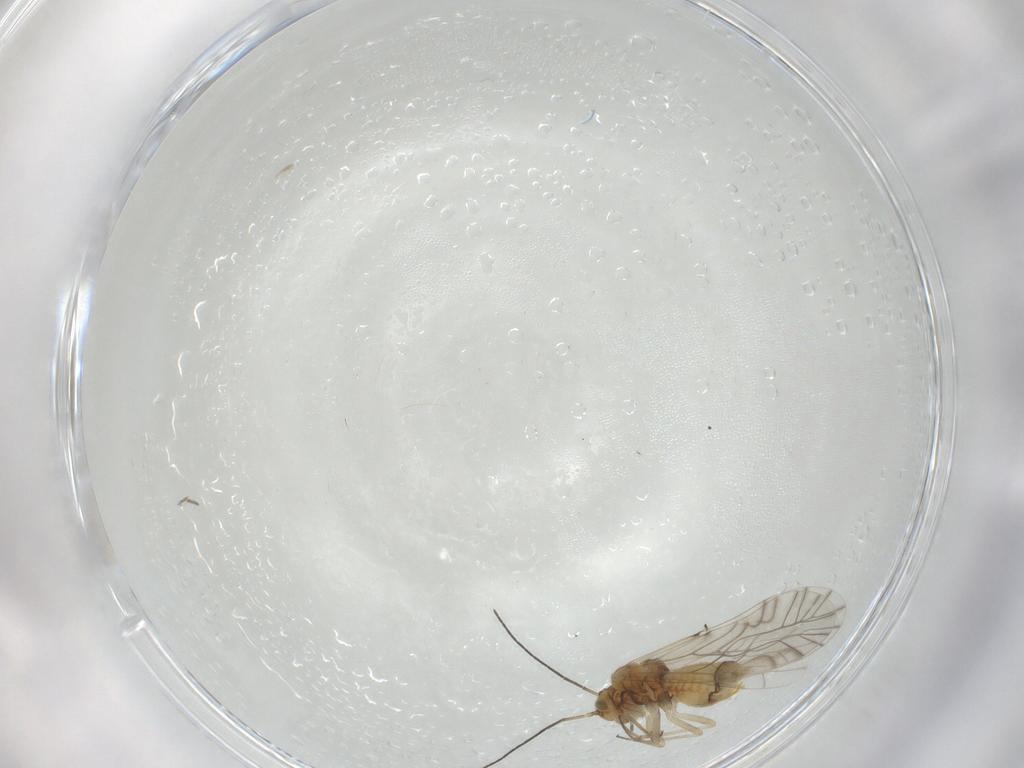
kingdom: Animalia
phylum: Arthropoda
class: Insecta
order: Psocodea
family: Lachesillidae
